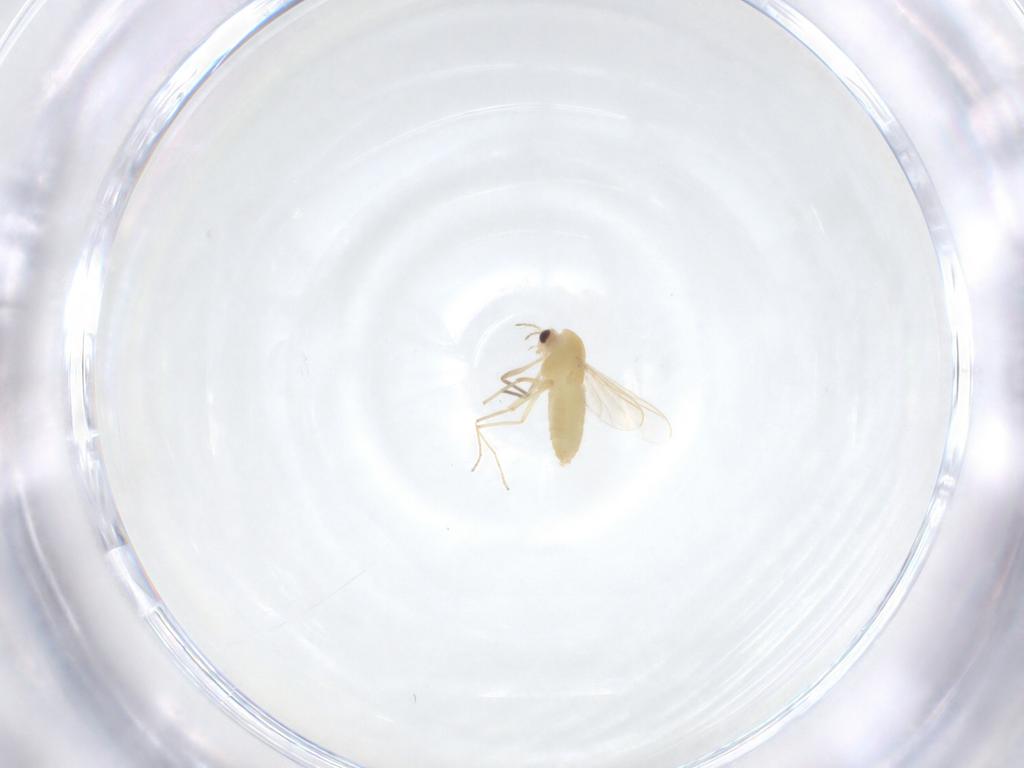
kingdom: Animalia
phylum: Arthropoda
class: Insecta
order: Diptera
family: Chironomidae
